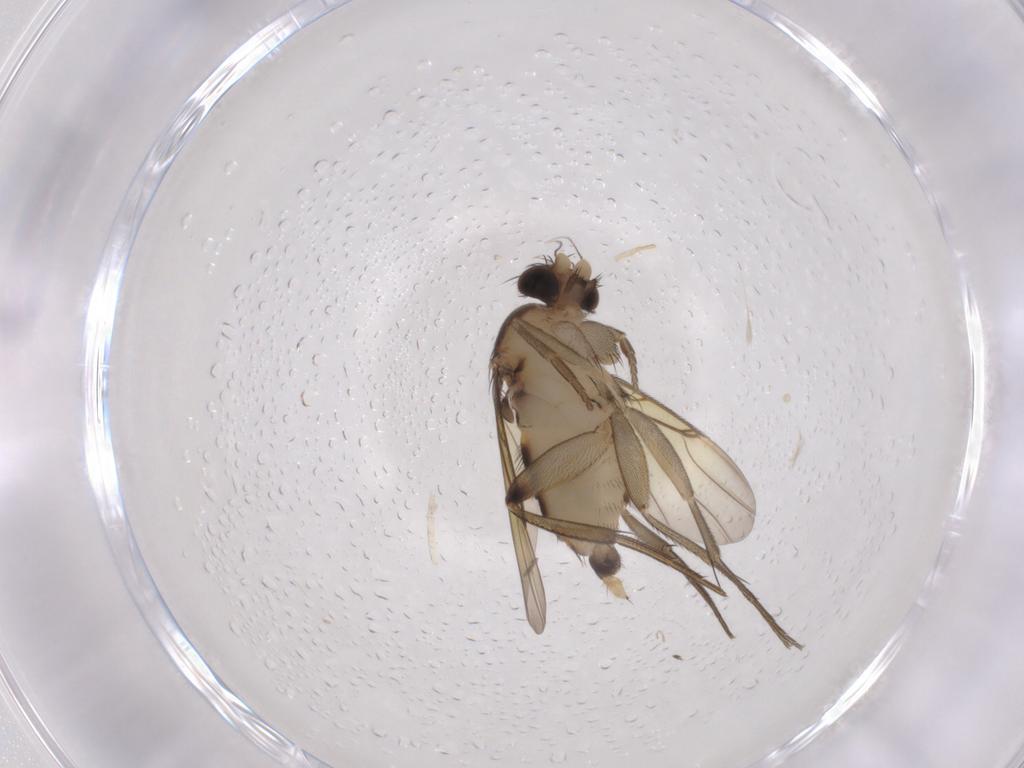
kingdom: Animalia
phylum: Arthropoda
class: Insecta
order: Diptera
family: Phoridae
